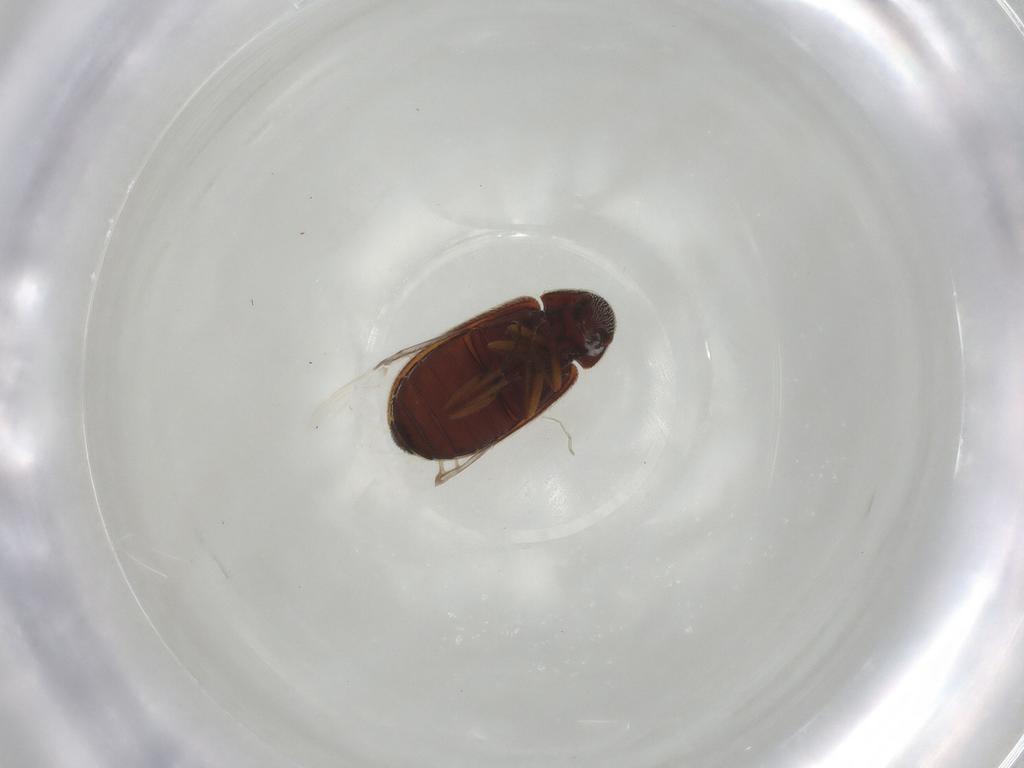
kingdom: Animalia
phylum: Arthropoda
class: Insecta
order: Coleoptera
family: Rhadalidae
